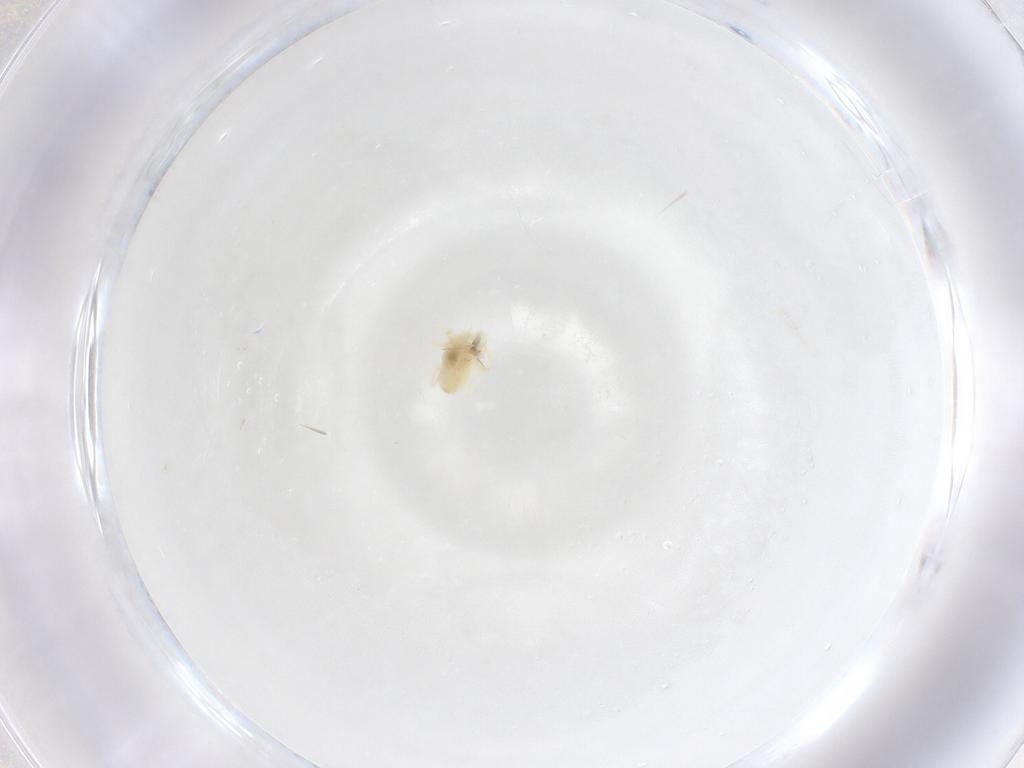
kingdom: Animalia
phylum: Arthropoda
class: Arachnida
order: Trombidiformes
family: Anystidae
